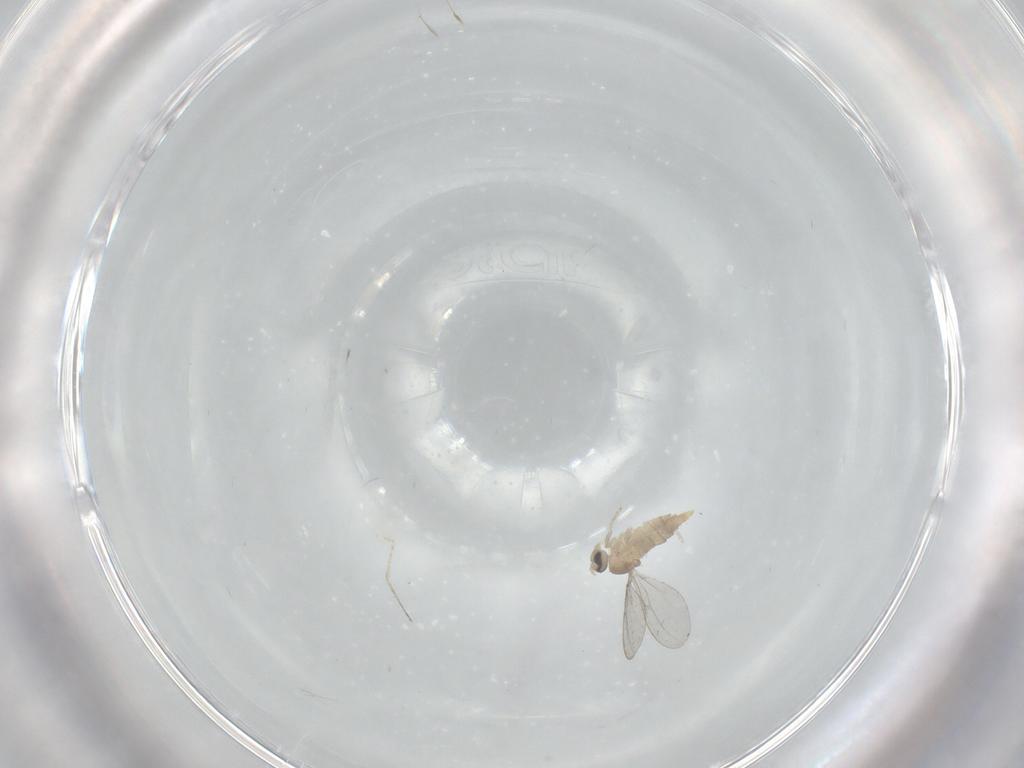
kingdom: Animalia
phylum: Arthropoda
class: Insecta
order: Diptera
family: Cecidomyiidae
